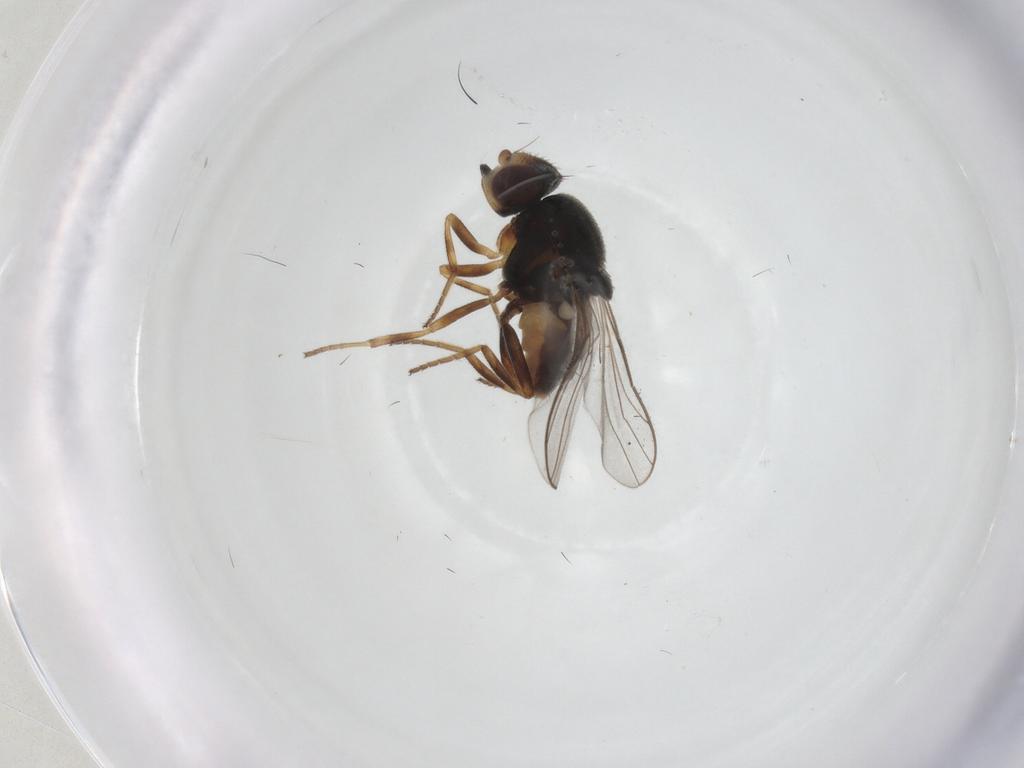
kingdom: Animalia
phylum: Arthropoda
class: Insecta
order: Diptera
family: Chloropidae
